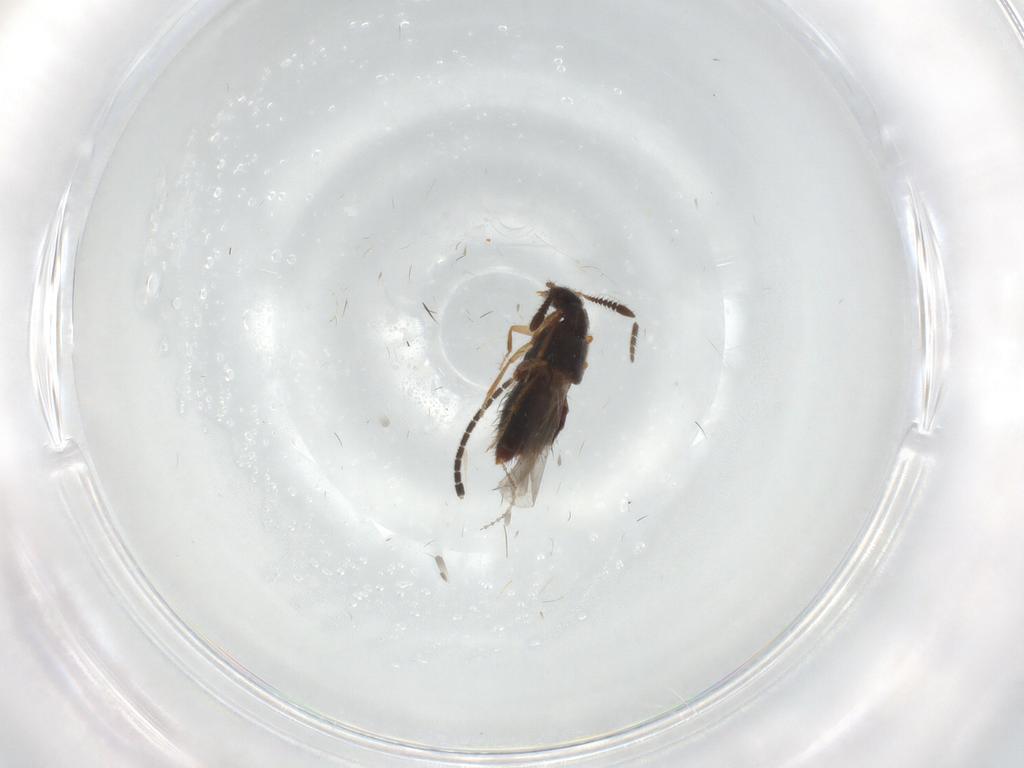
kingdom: Animalia
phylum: Arthropoda
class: Insecta
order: Coleoptera
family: Staphylinidae
